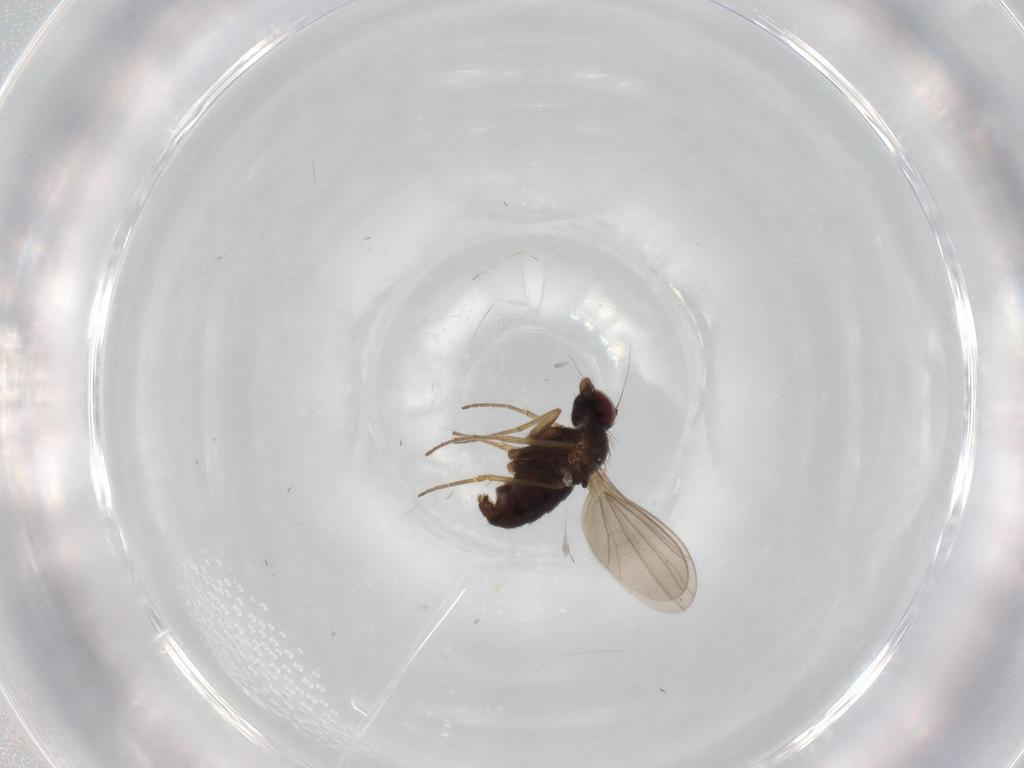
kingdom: Animalia
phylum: Arthropoda
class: Insecta
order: Diptera
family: Dolichopodidae
